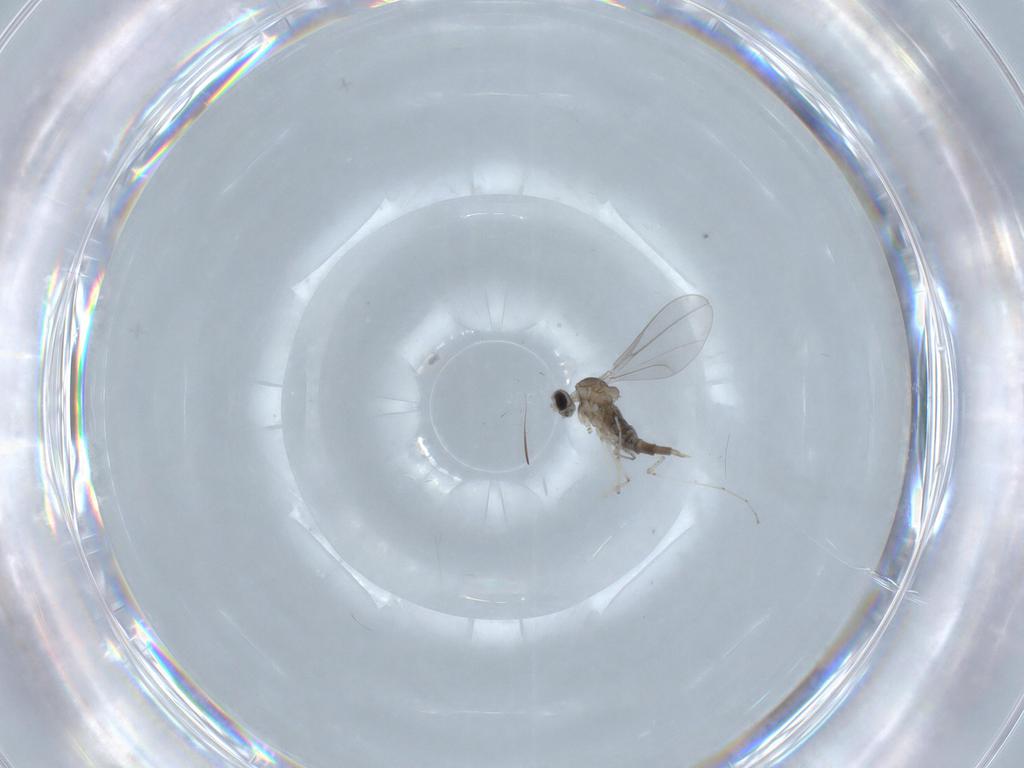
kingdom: Animalia
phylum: Arthropoda
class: Insecta
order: Diptera
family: Cecidomyiidae
